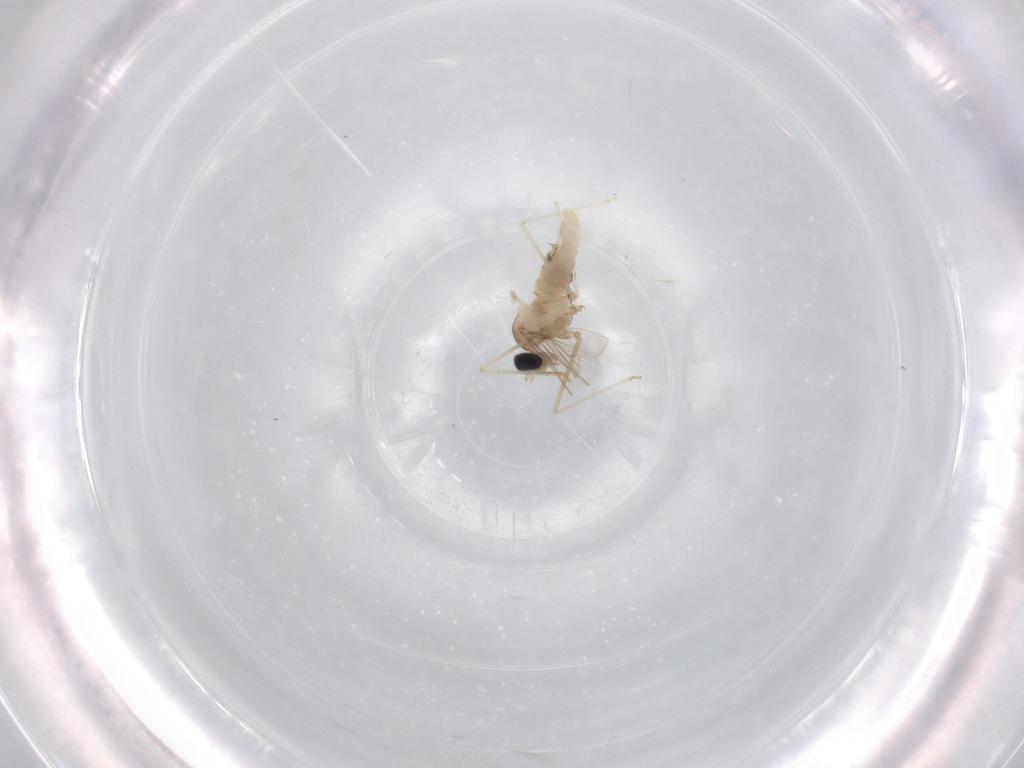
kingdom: Animalia
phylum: Arthropoda
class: Insecta
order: Diptera
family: Cecidomyiidae
